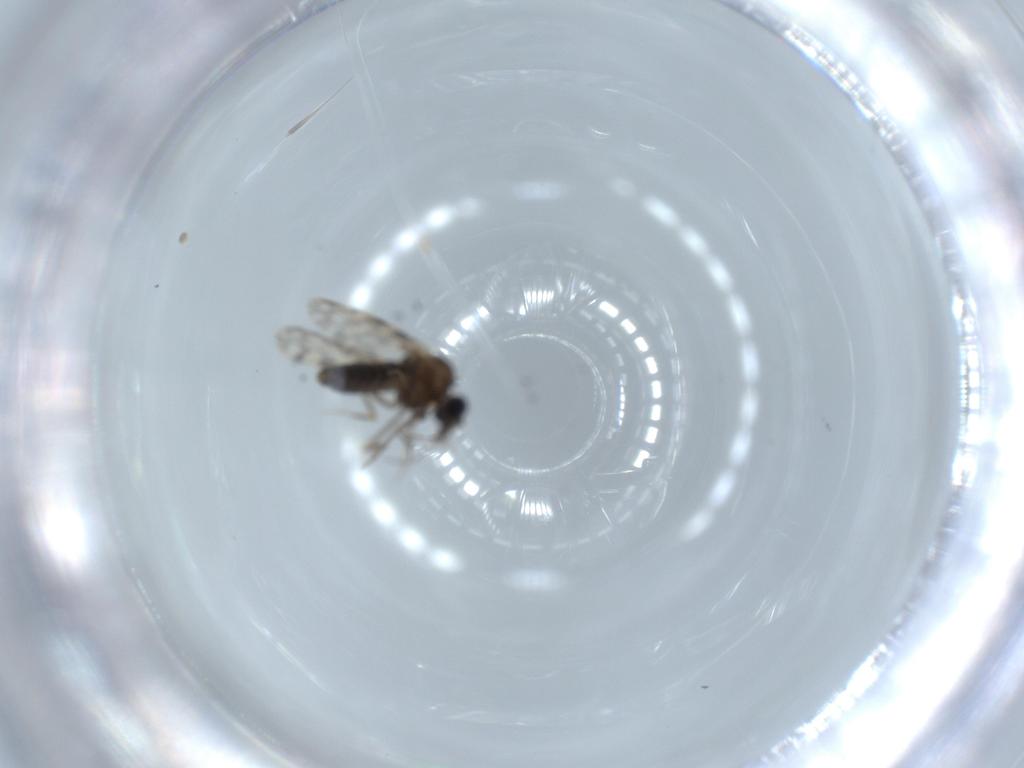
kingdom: Animalia
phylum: Arthropoda
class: Insecta
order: Diptera
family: Ceratopogonidae
